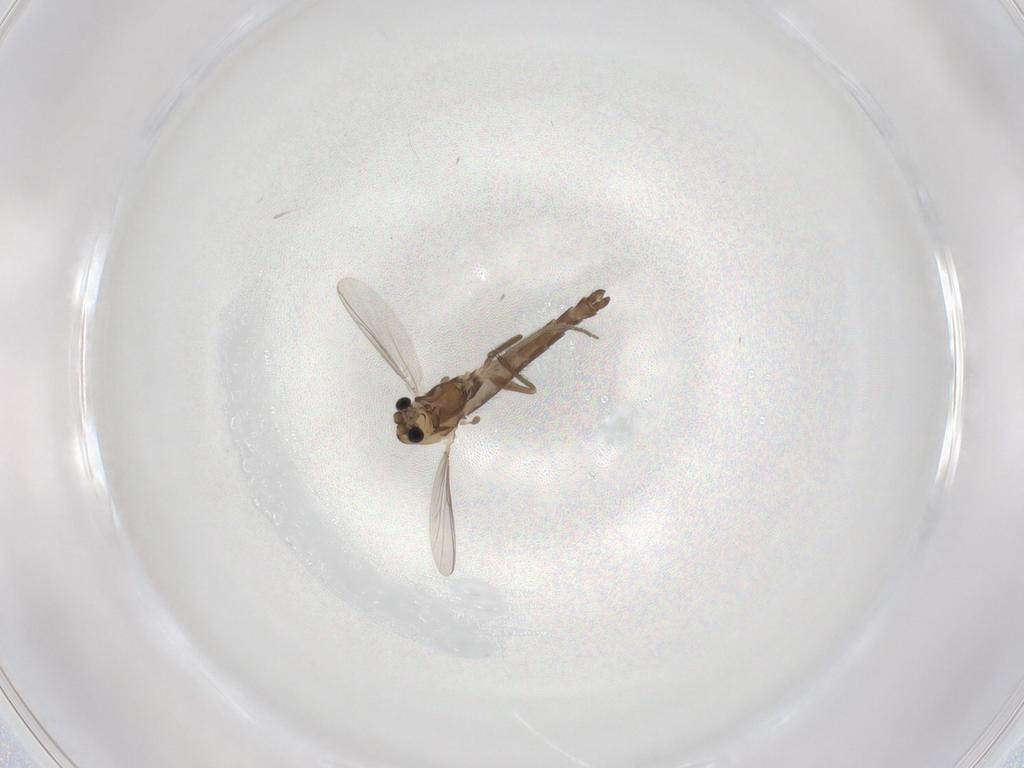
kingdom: Animalia
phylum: Arthropoda
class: Insecta
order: Diptera
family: Chironomidae
